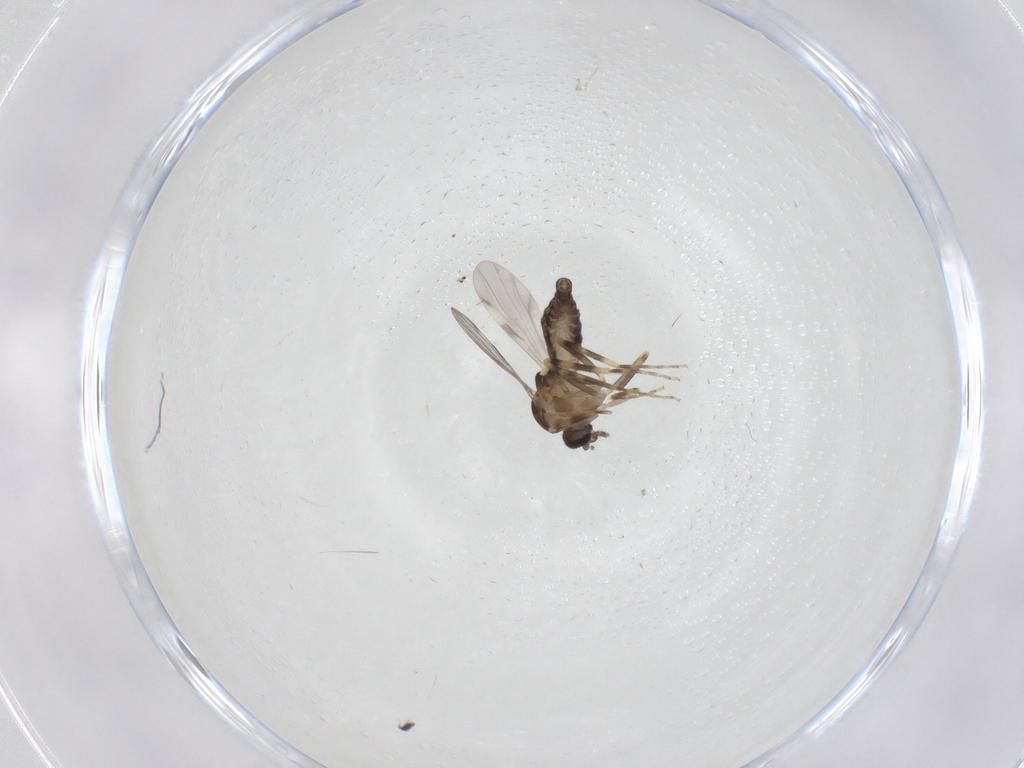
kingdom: Animalia
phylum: Arthropoda
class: Insecta
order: Diptera
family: Ceratopogonidae
